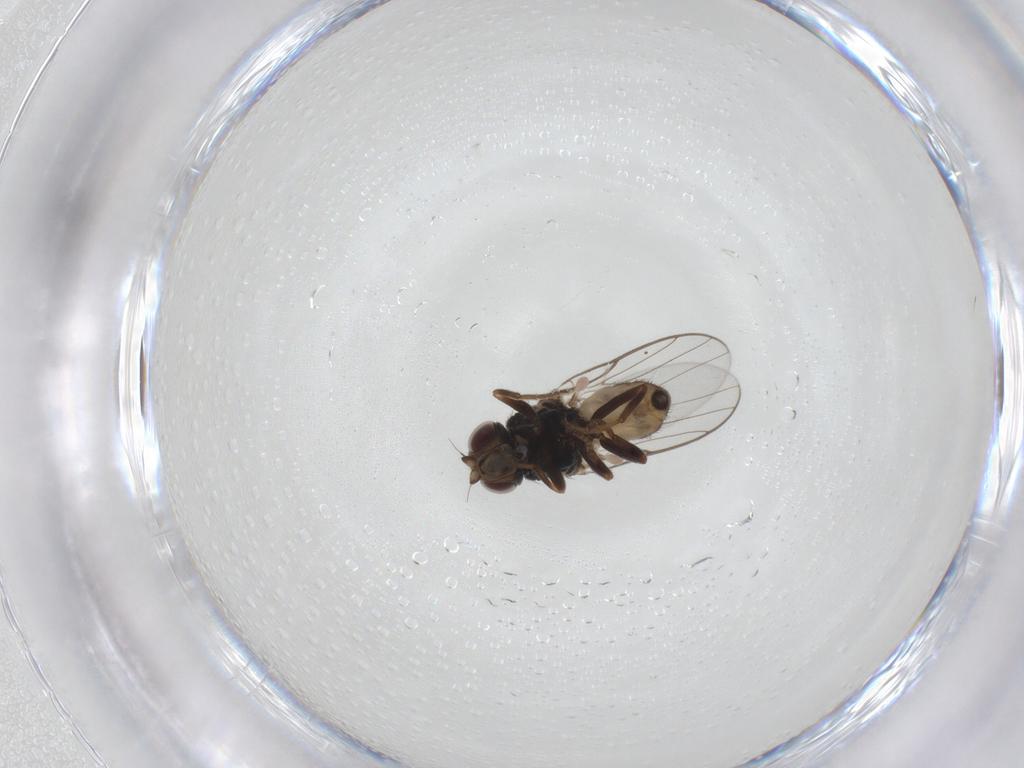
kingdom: Animalia
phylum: Arthropoda
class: Insecta
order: Diptera
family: Chloropidae
